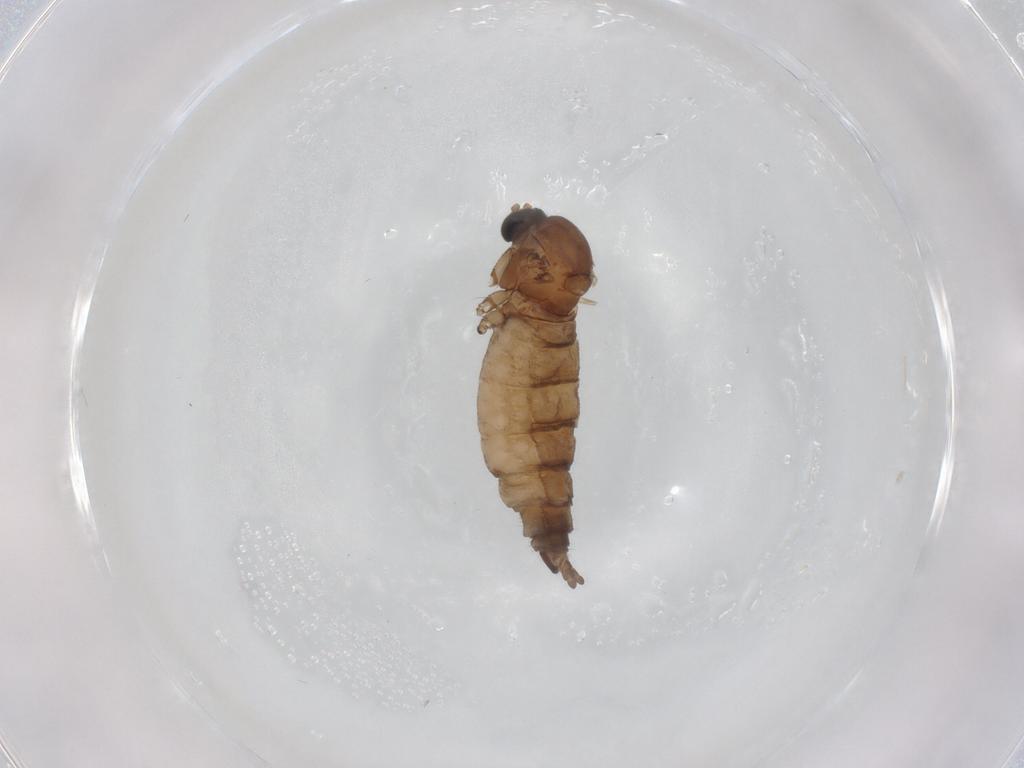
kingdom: Animalia
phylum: Arthropoda
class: Insecta
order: Diptera
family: Sciaridae
